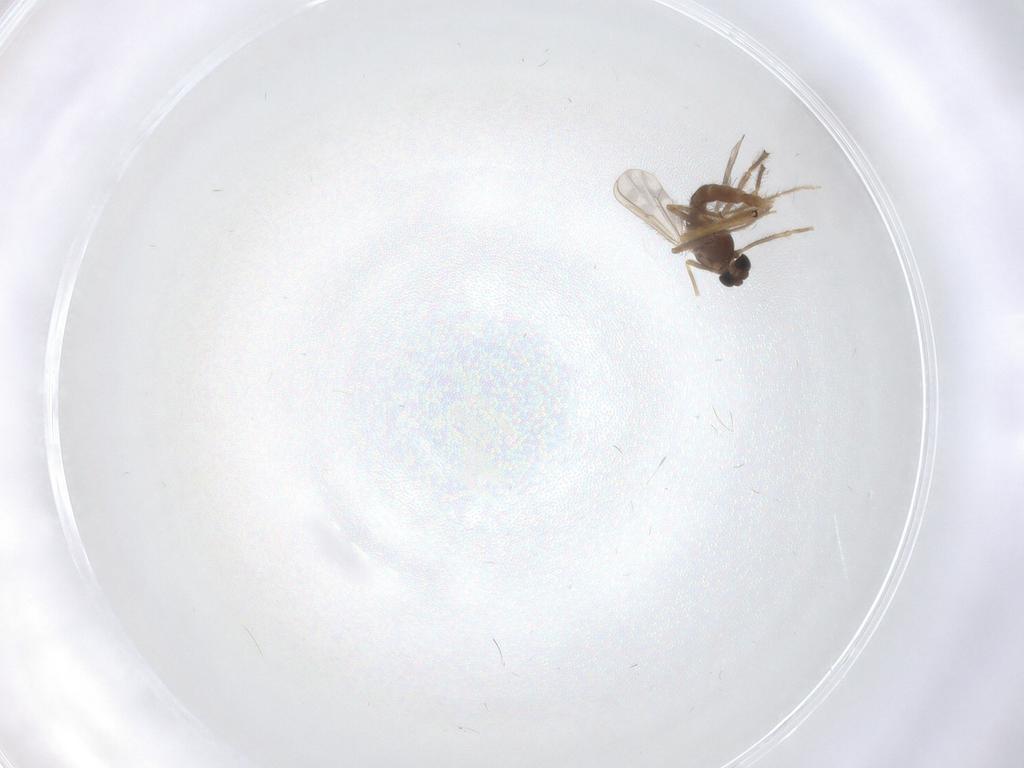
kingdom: Animalia
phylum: Arthropoda
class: Insecta
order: Diptera
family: Chironomidae
